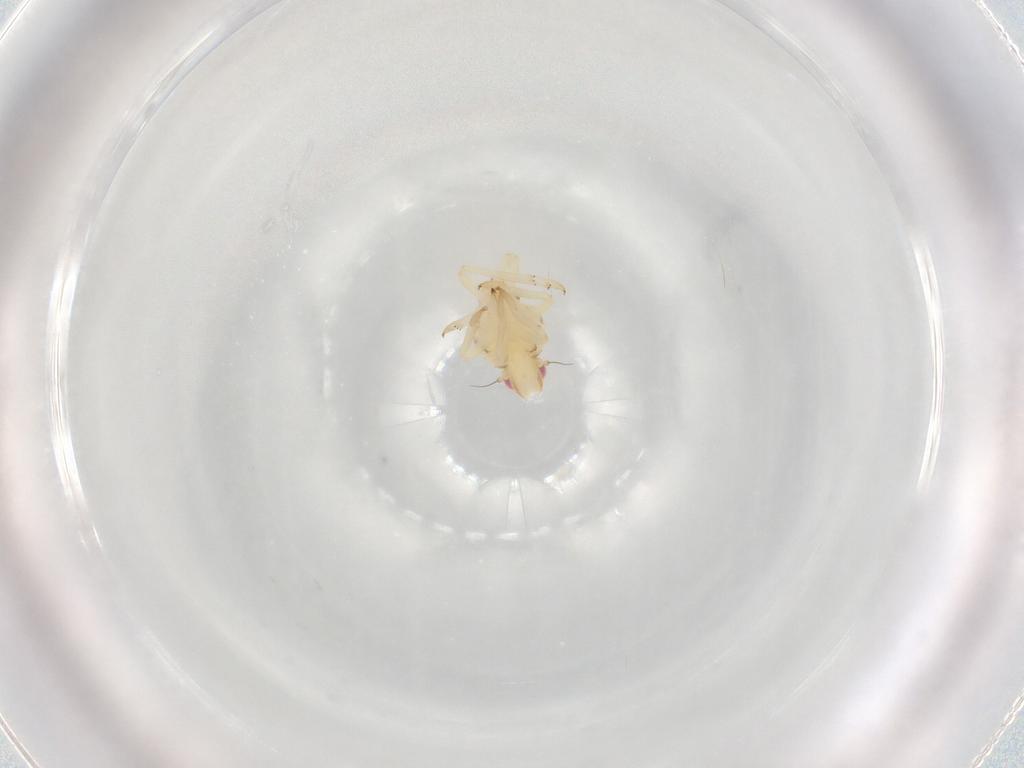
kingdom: Animalia
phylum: Arthropoda
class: Insecta
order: Hemiptera
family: Tropiduchidae
